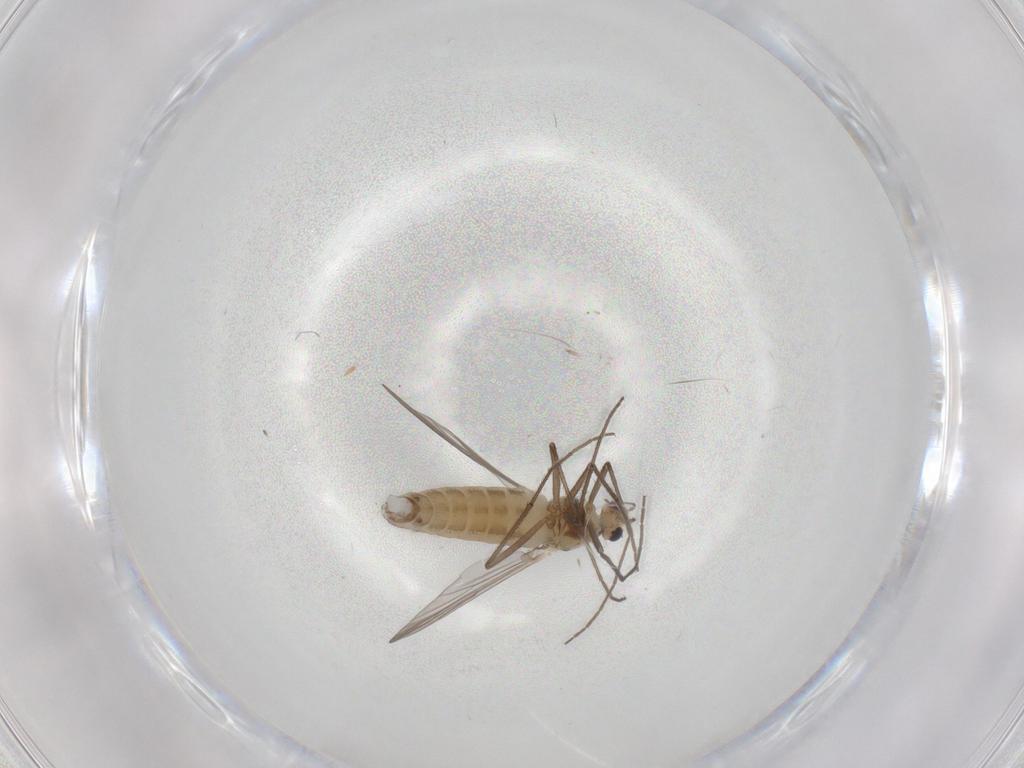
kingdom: Animalia
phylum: Arthropoda
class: Insecta
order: Diptera
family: Chironomidae
